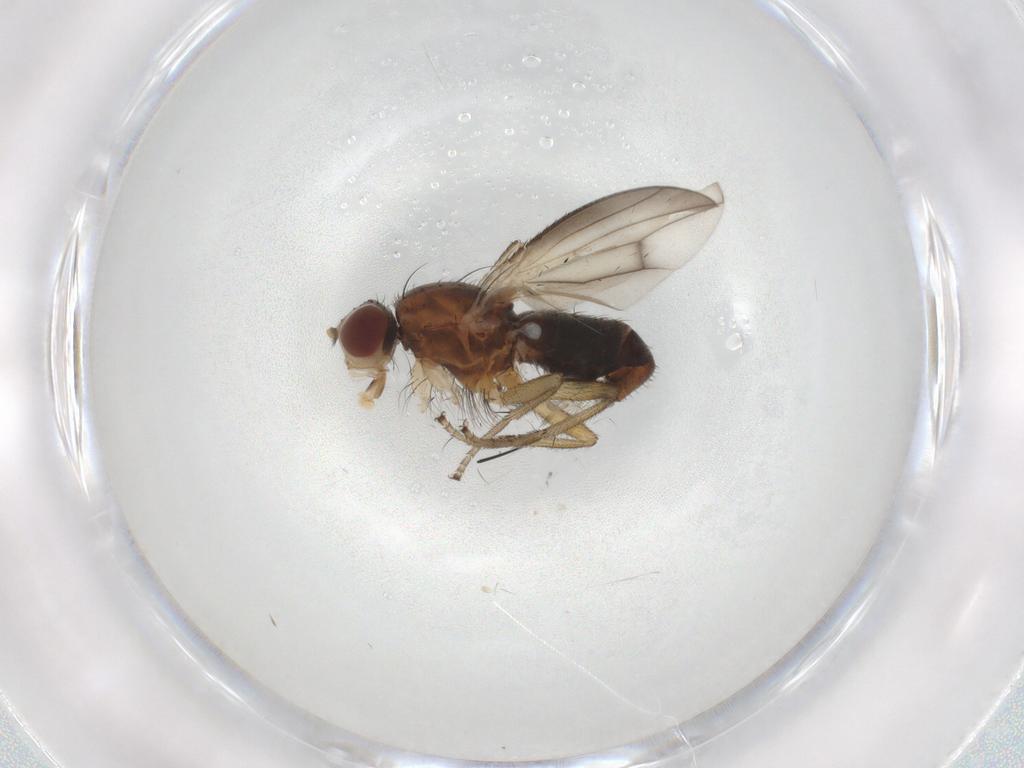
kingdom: Animalia
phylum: Arthropoda
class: Insecta
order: Diptera
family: Heleomyzidae
